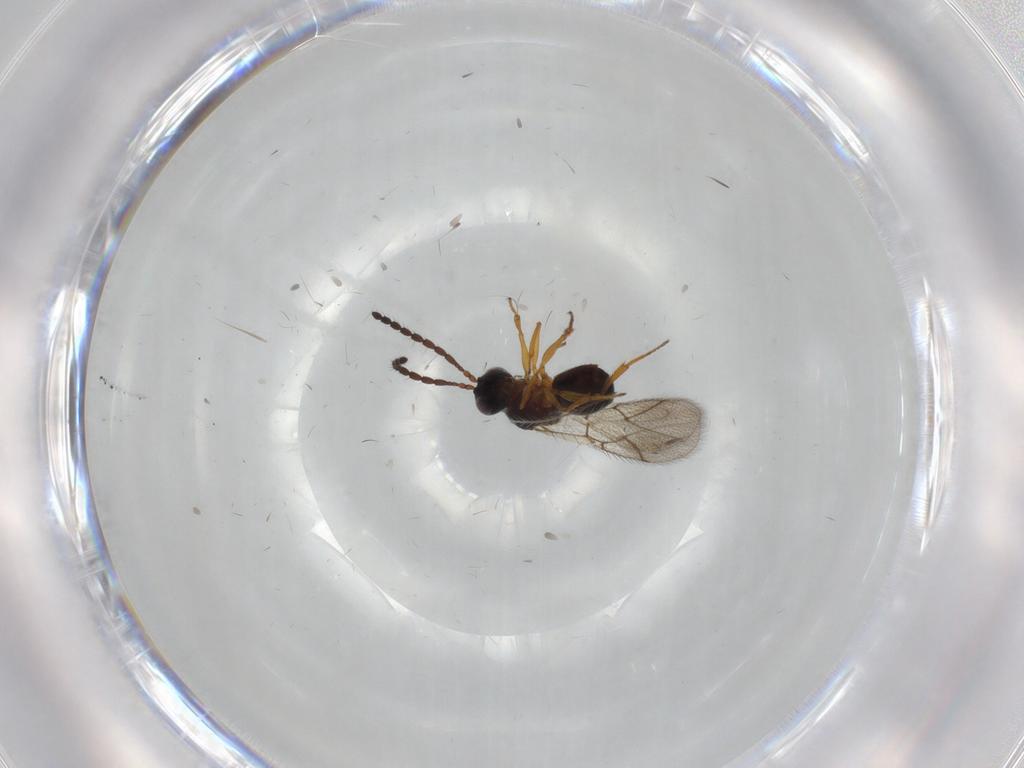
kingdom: Animalia
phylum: Arthropoda
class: Insecta
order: Hymenoptera
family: Figitidae
